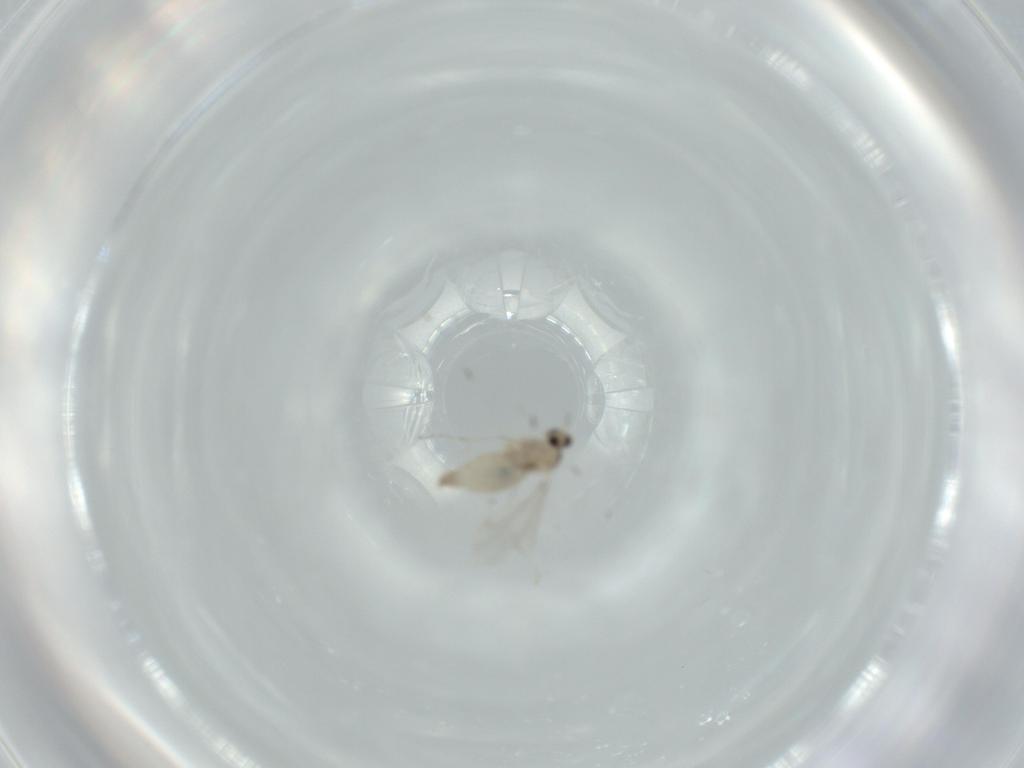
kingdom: Animalia
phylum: Arthropoda
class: Insecta
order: Diptera
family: Cecidomyiidae
